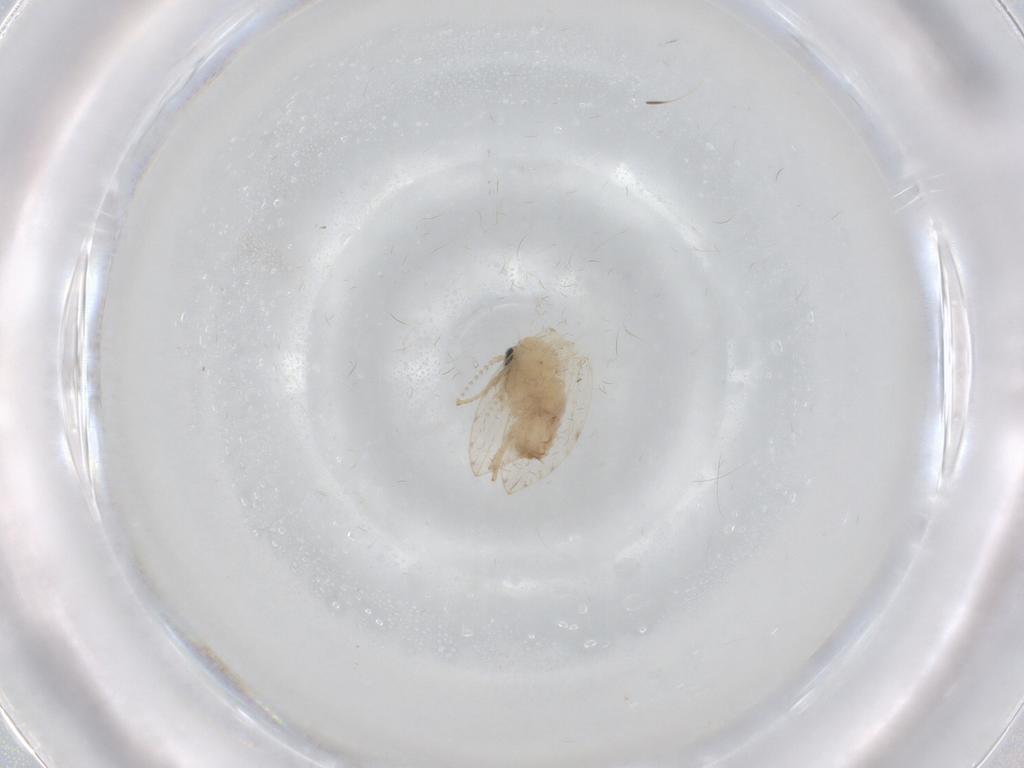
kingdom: Animalia
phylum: Arthropoda
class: Insecta
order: Diptera
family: Psychodidae
